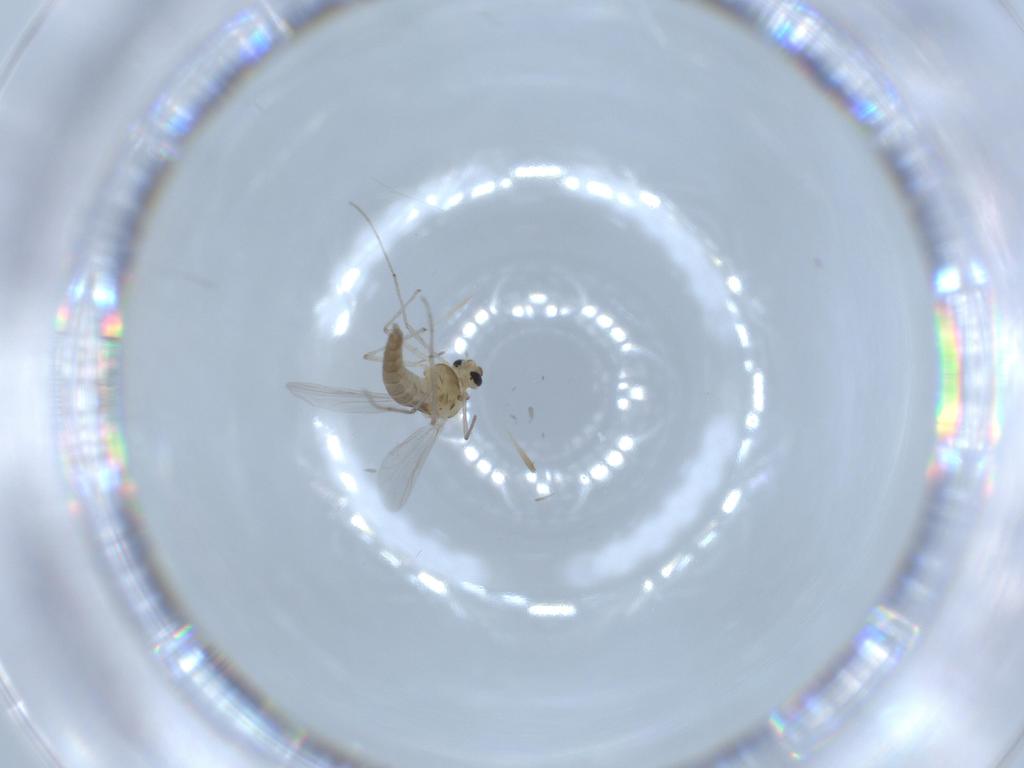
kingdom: Animalia
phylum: Arthropoda
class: Insecta
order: Diptera
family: Chironomidae
